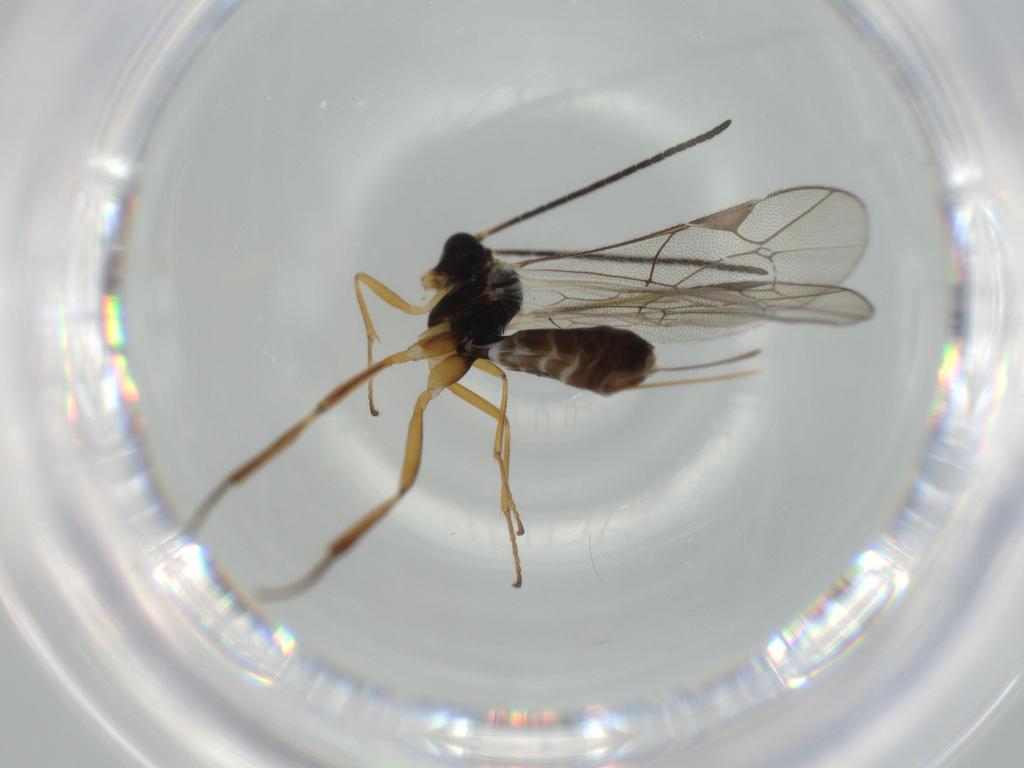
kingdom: Animalia
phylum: Arthropoda
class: Insecta
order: Hymenoptera
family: Ichneumonidae
